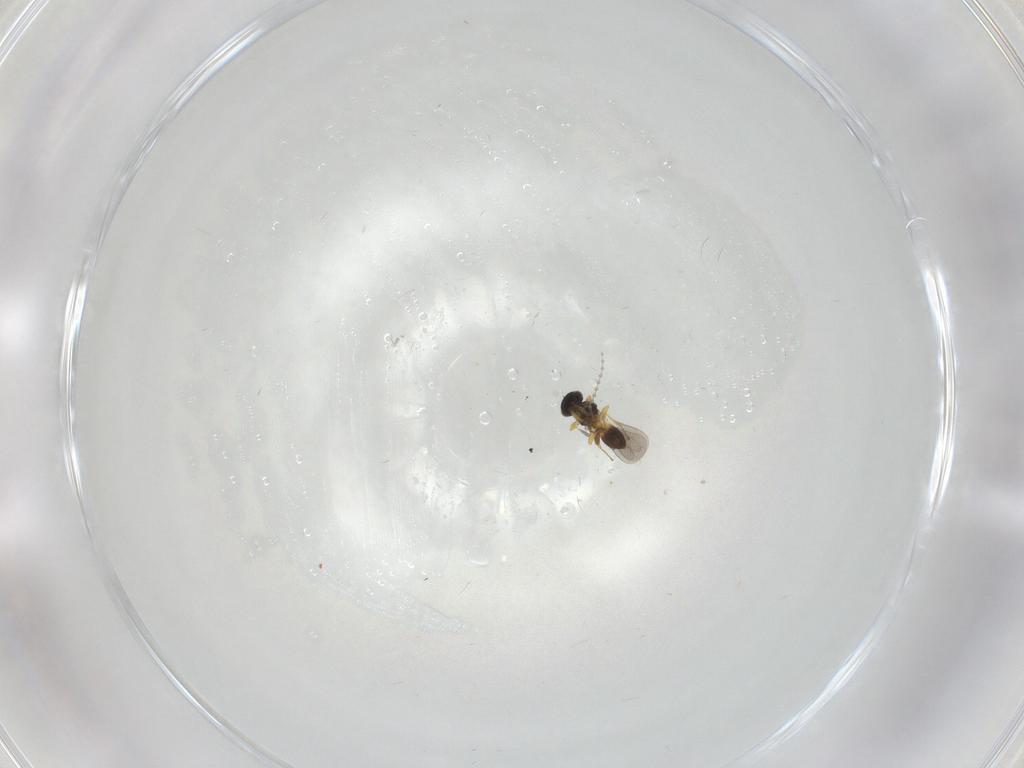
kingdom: Animalia
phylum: Arthropoda
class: Insecta
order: Hymenoptera
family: Platygastridae
